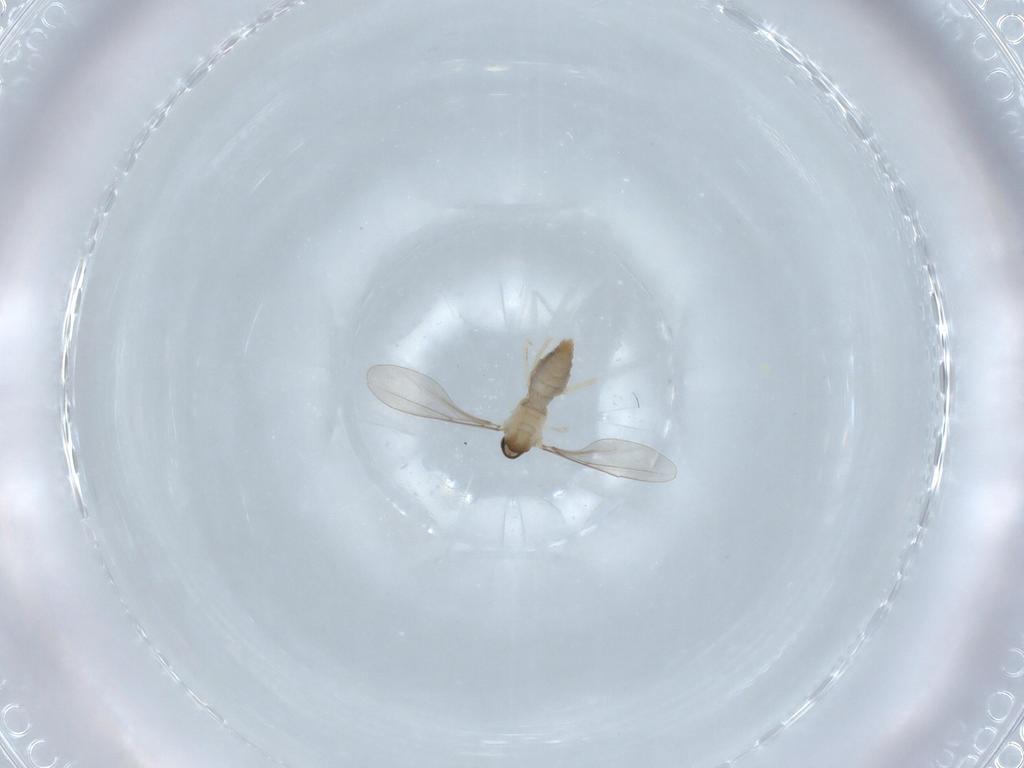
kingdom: Animalia
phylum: Arthropoda
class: Insecta
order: Diptera
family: Cecidomyiidae
